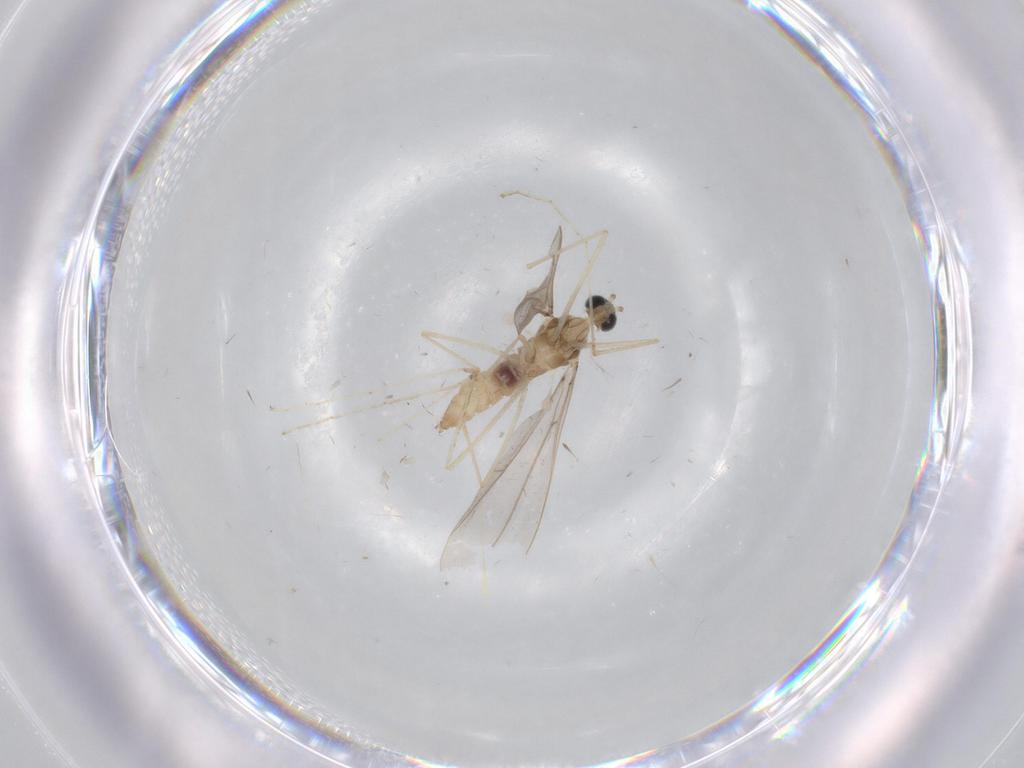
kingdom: Animalia
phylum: Arthropoda
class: Insecta
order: Diptera
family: Cecidomyiidae
